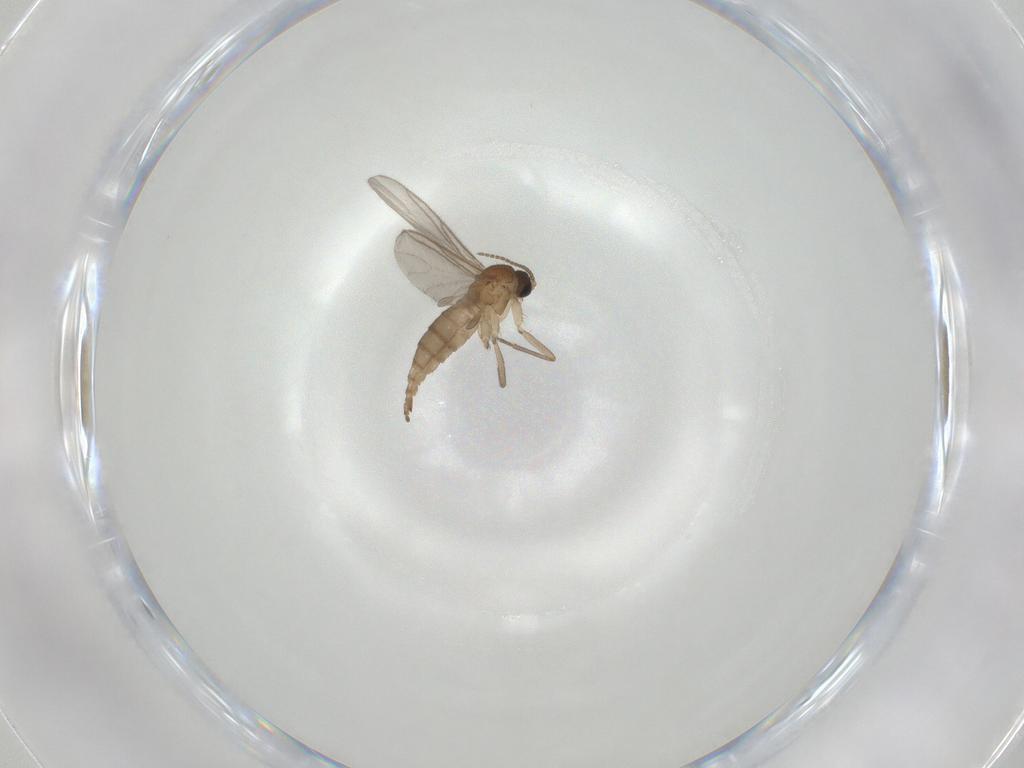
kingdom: Animalia
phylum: Arthropoda
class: Insecta
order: Diptera
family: Sciaridae
